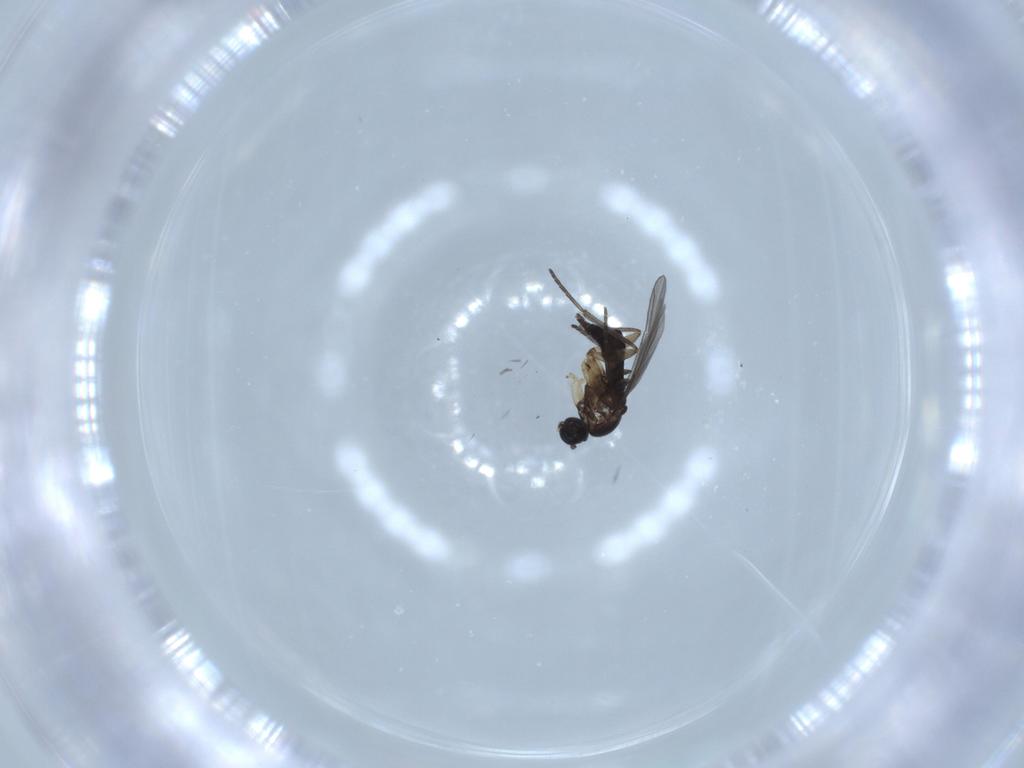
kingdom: Animalia
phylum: Arthropoda
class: Insecta
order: Diptera
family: Sciaridae
